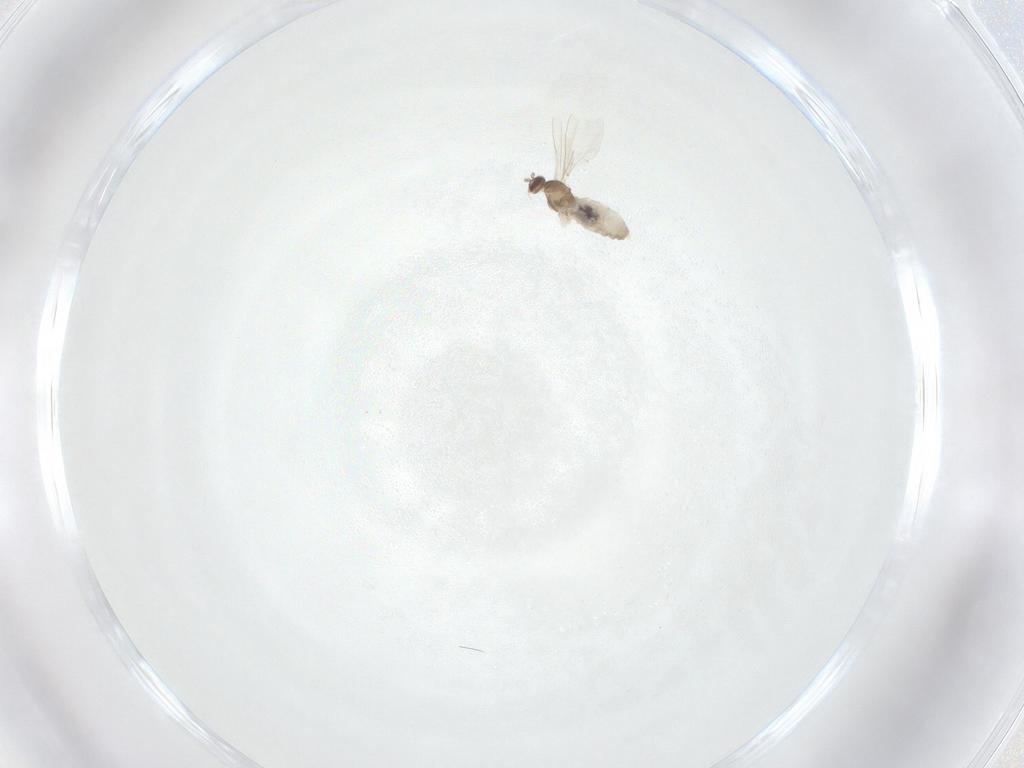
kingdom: Animalia
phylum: Arthropoda
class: Insecta
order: Diptera
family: Cecidomyiidae
